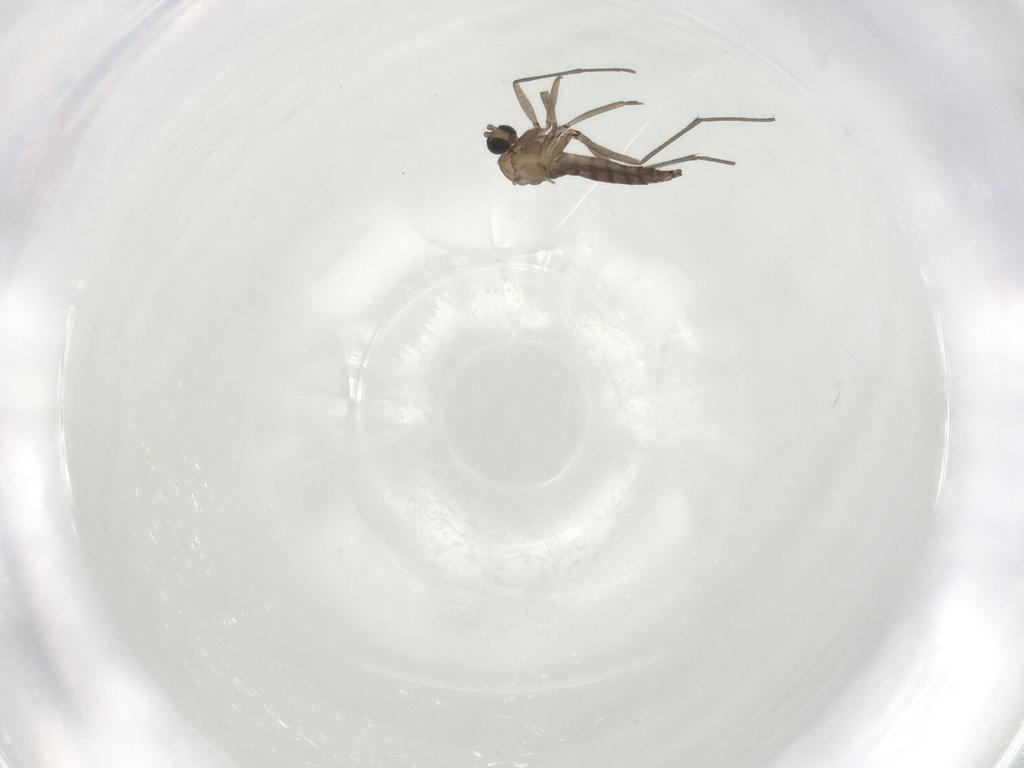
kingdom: Animalia
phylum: Arthropoda
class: Insecta
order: Diptera
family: Sciaridae
